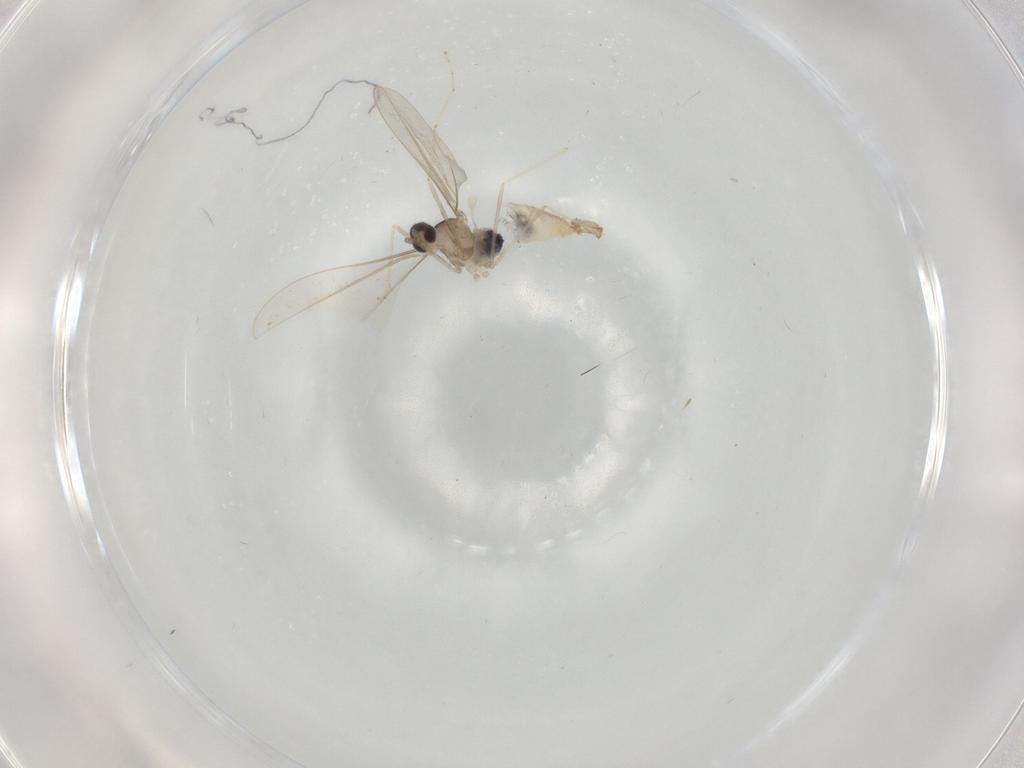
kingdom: Animalia
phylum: Arthropoda
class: Insecta
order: Diptera
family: Cecidomyiidae
